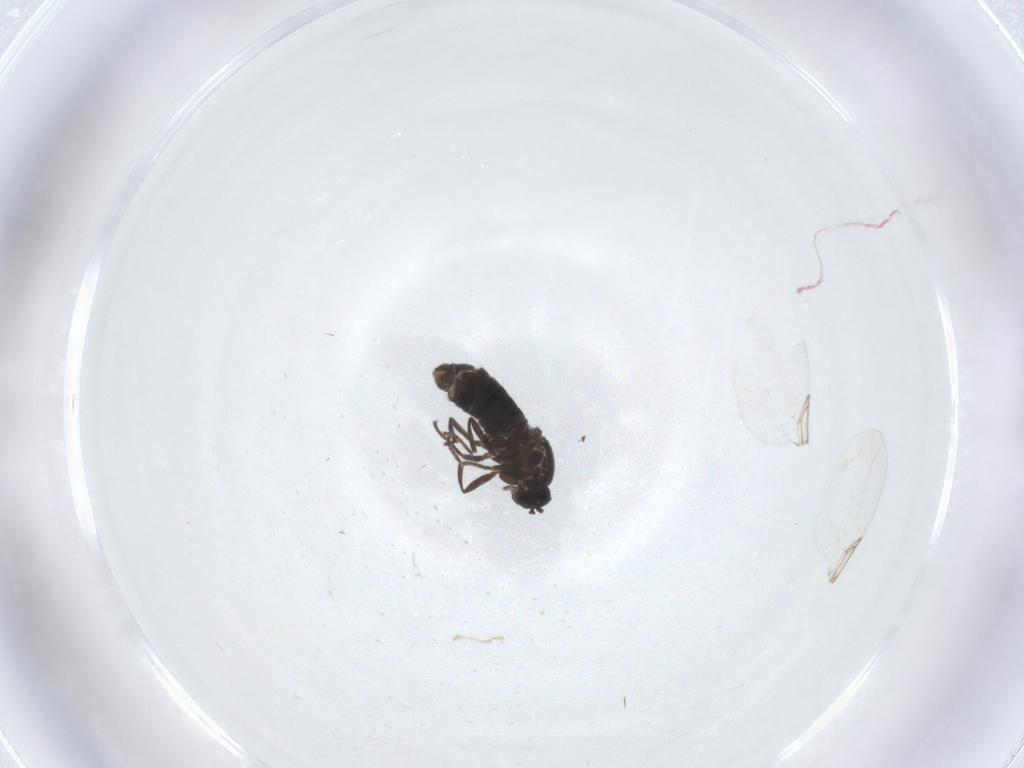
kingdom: Animalia
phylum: Arthropoda
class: Insecta
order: Diptera
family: Scatopsidae
